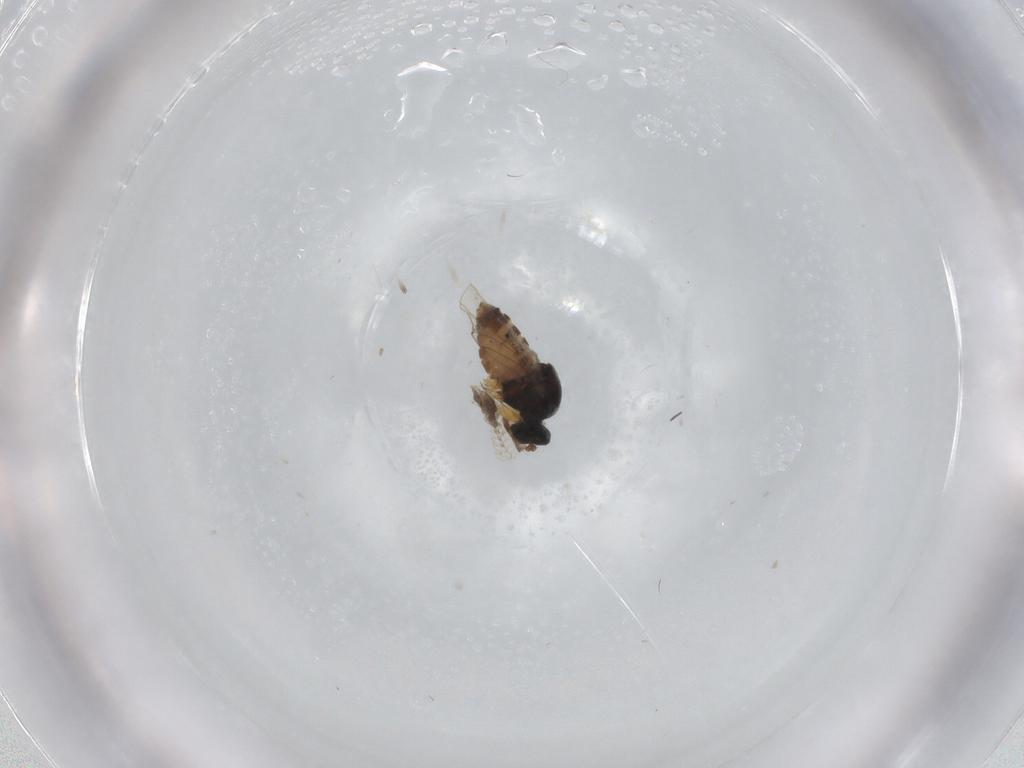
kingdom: Animalia
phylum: Arthropoda
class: Insecta
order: Diptera
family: Hybotidae
